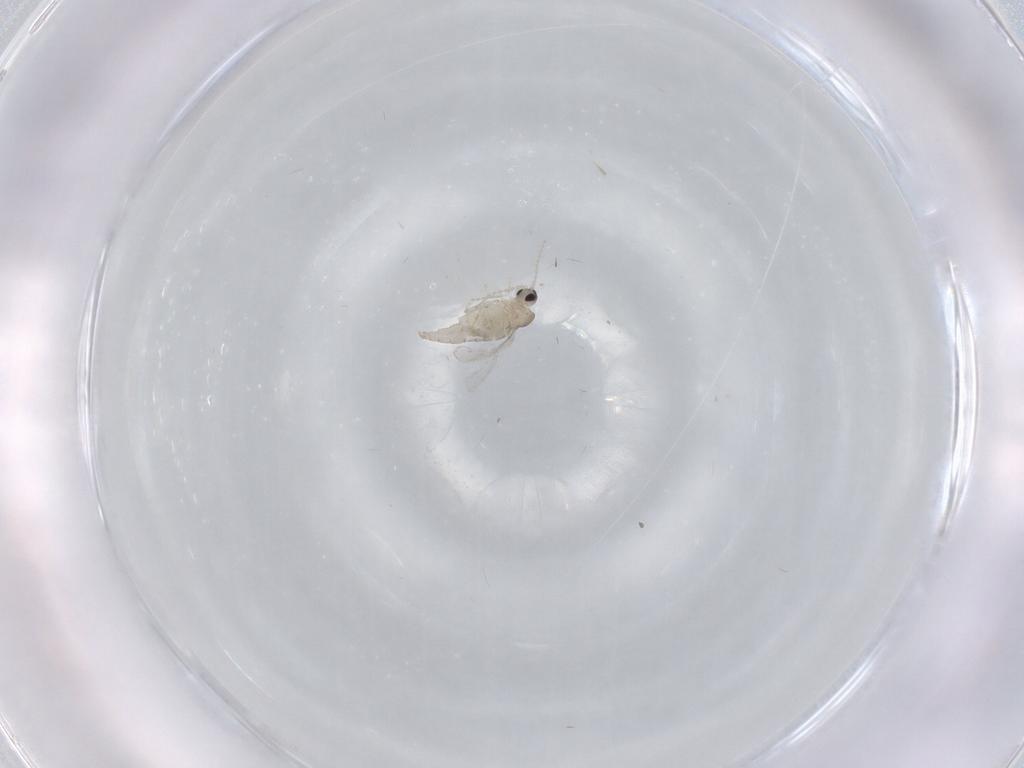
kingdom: Animalia
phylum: Arthropoda
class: Insecta
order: Diptera
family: Cecidomyiidae
